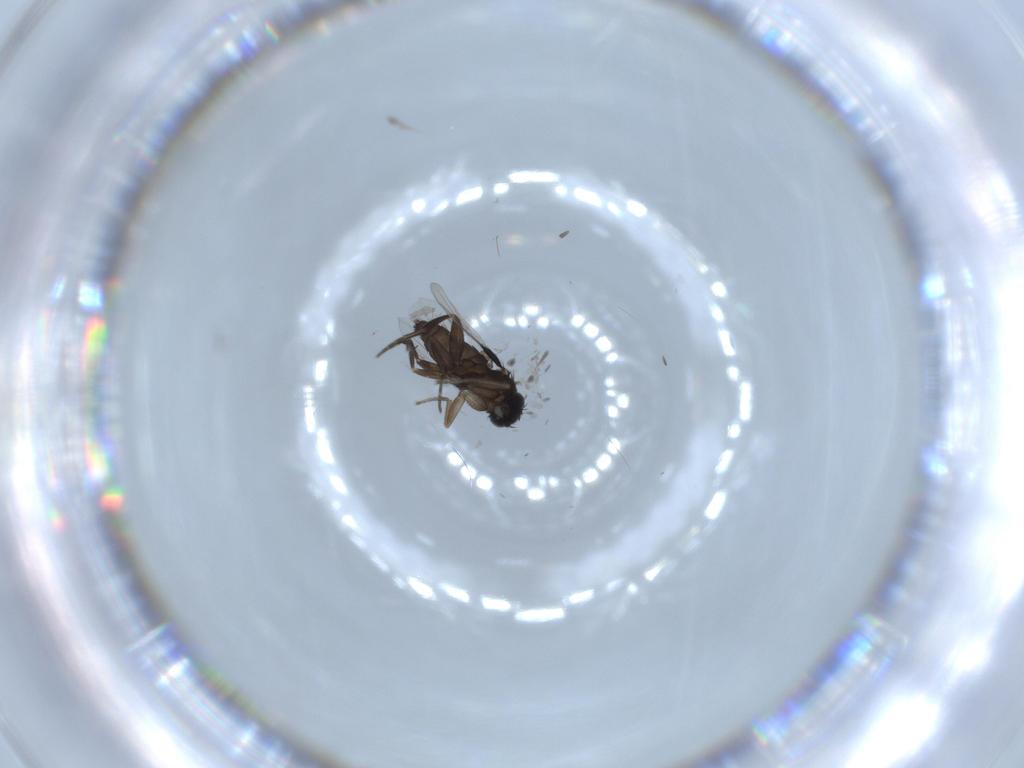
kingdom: Animalia
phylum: Arthropoda
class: Insecta
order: Diptera
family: Phoridae
